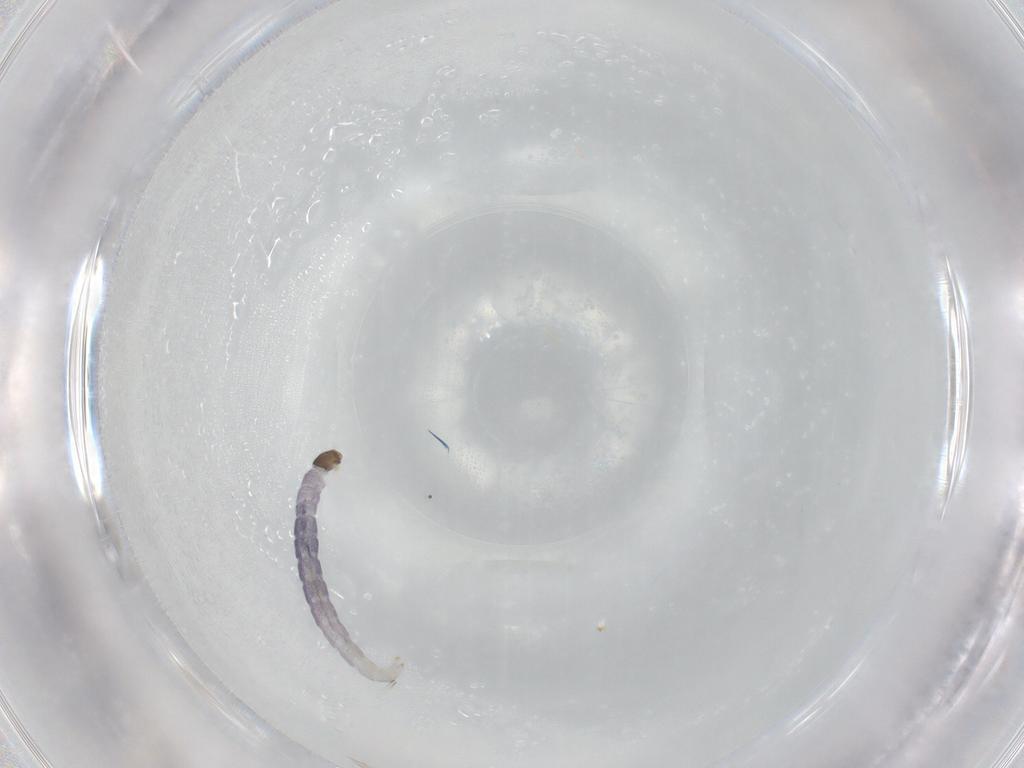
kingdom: Animalia
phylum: Arthropoda
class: Insecta
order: Diptera
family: Chironomidae
